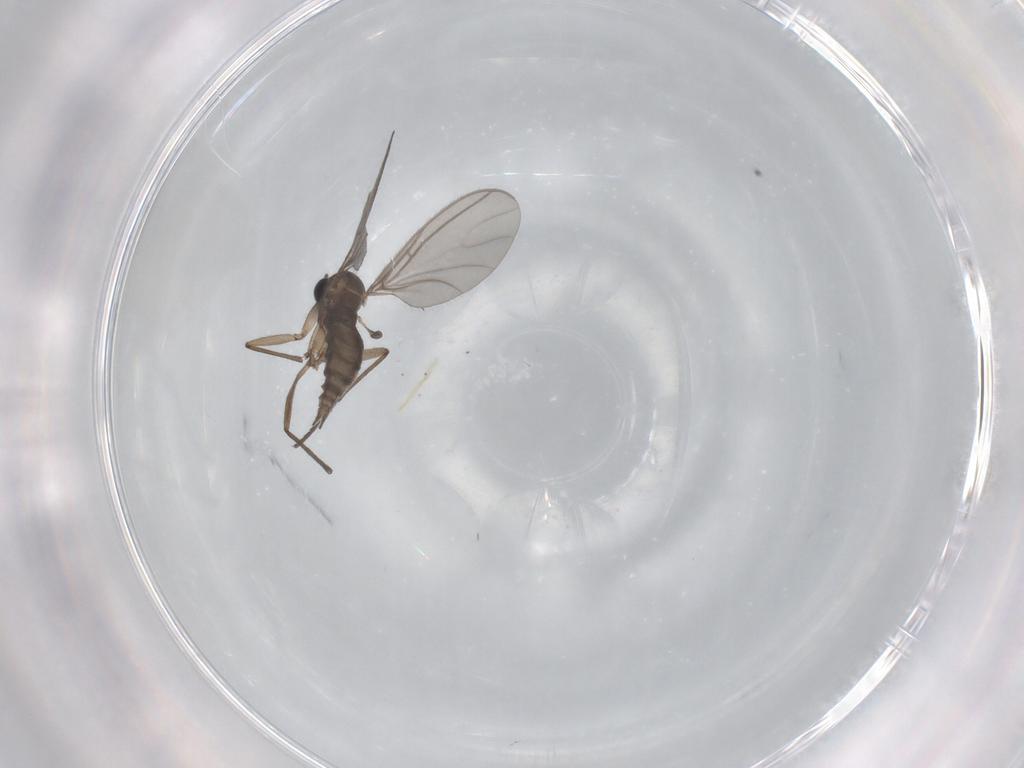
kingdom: Animalia
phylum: Arthropoda
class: Insecta
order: Diptera
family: Sciaridae
